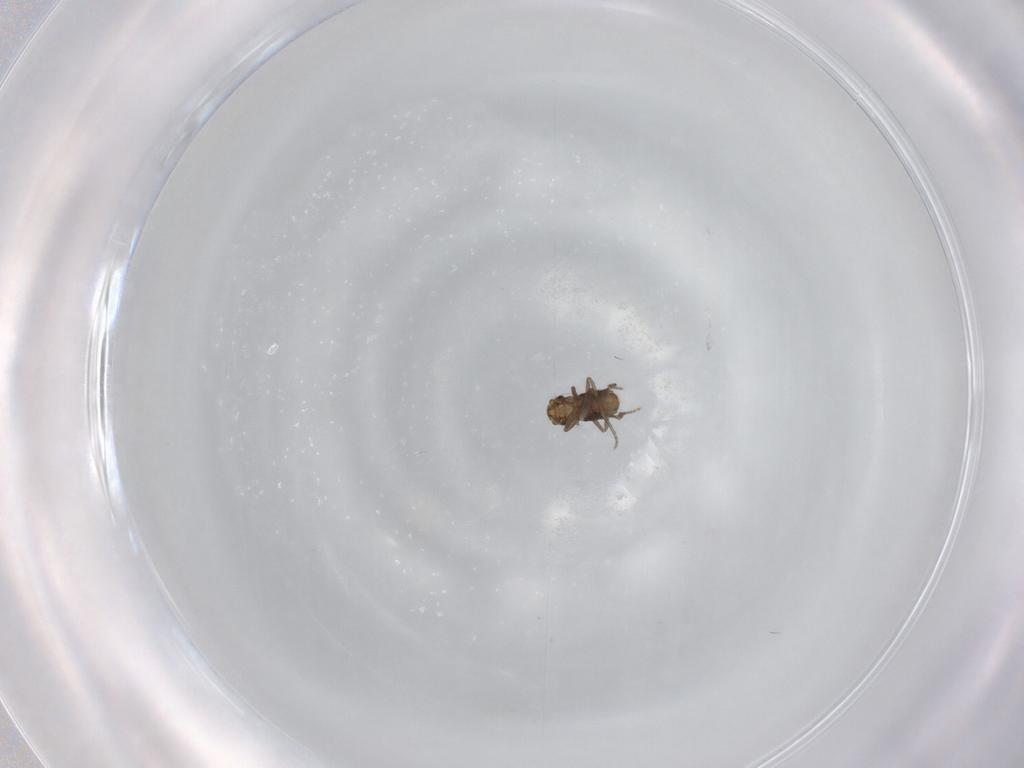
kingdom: Animalia
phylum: Arthropoda
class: Insecta
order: Diptera
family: Phoridae
